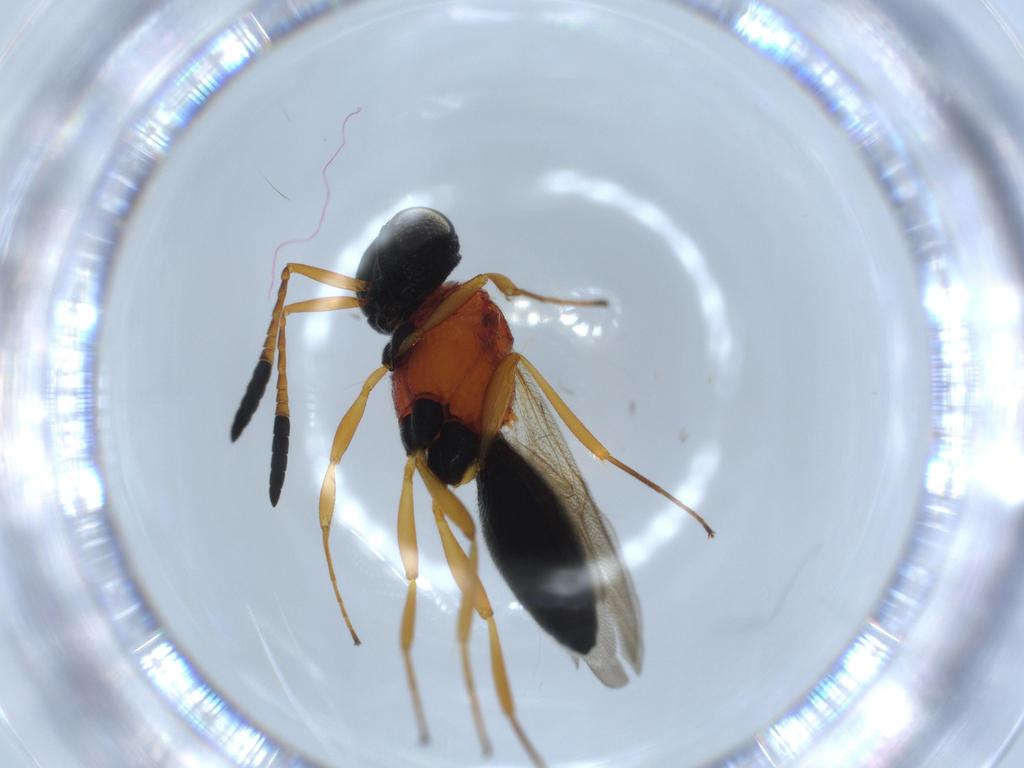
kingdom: Animalia
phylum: Arthropoda
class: Insecta
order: Hymenoptera
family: Scelionidae
